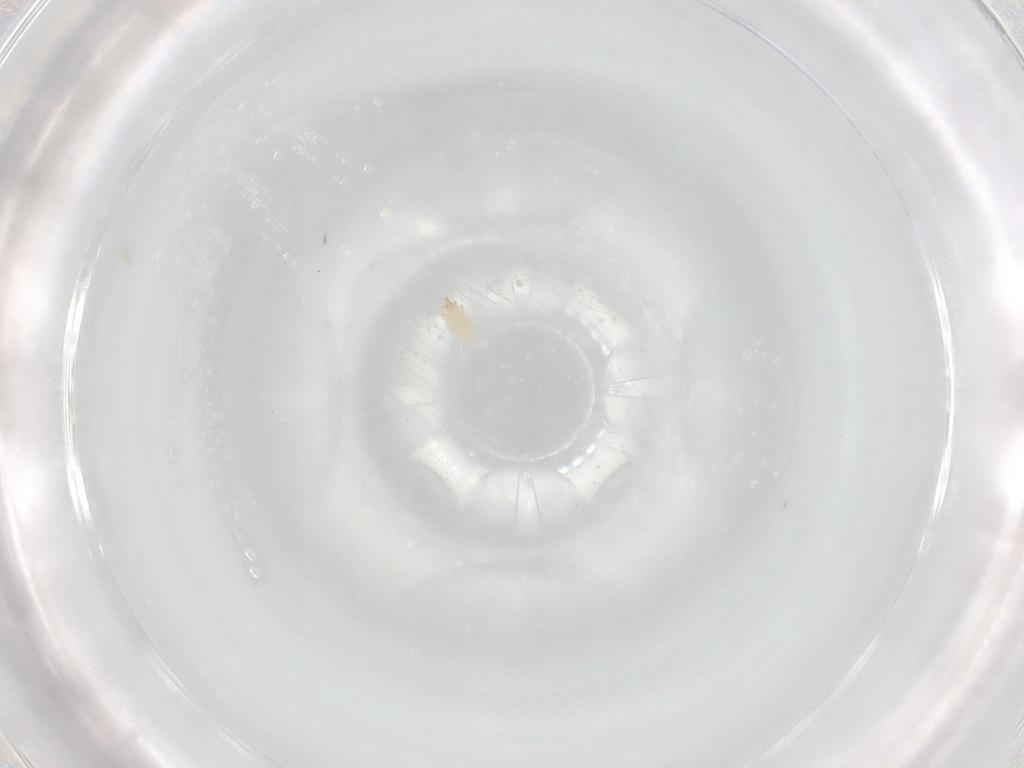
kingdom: Animalia
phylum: Arthropoda
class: Arachnida
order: Trombidiformes
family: Cunaxidae
